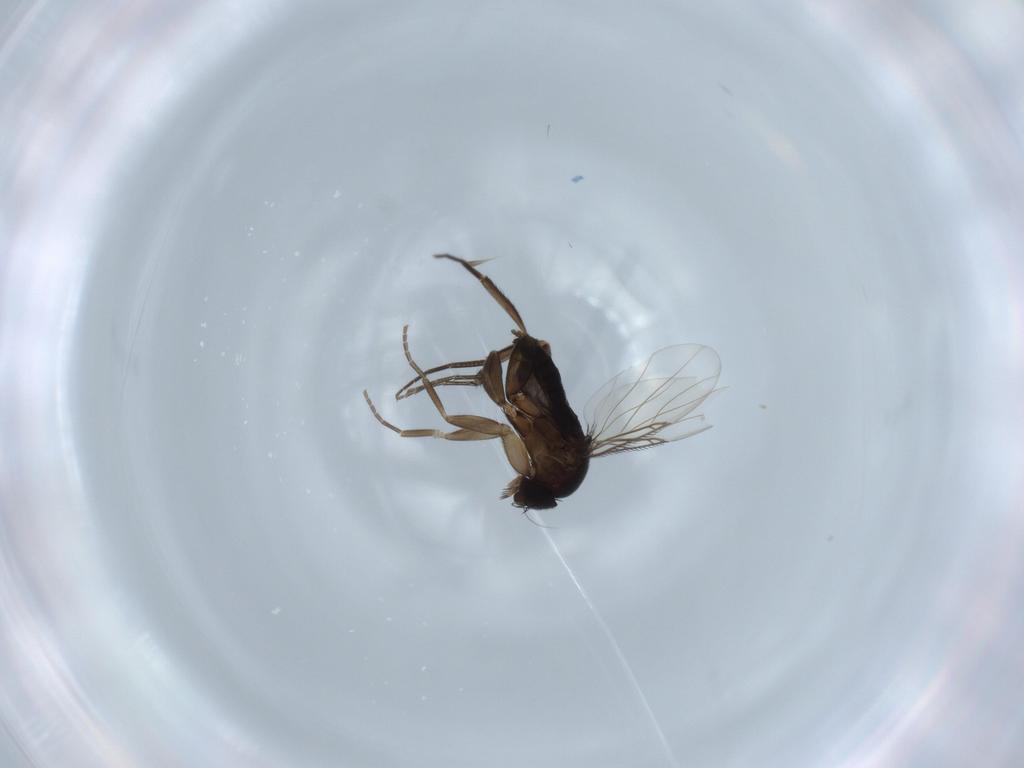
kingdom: Animalia
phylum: Arthropoda
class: Insecta
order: Diptera
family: Phoridae
